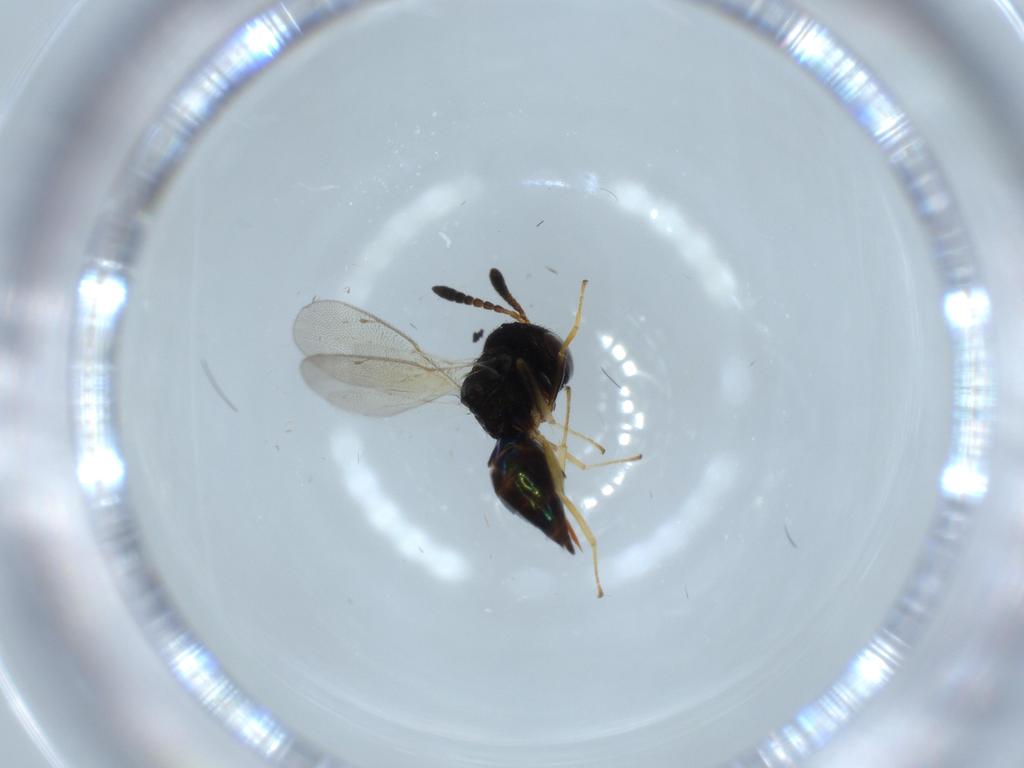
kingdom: Animalia
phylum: Arthropoda
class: Insecta
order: Hymenoptera
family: Pteromalidae
